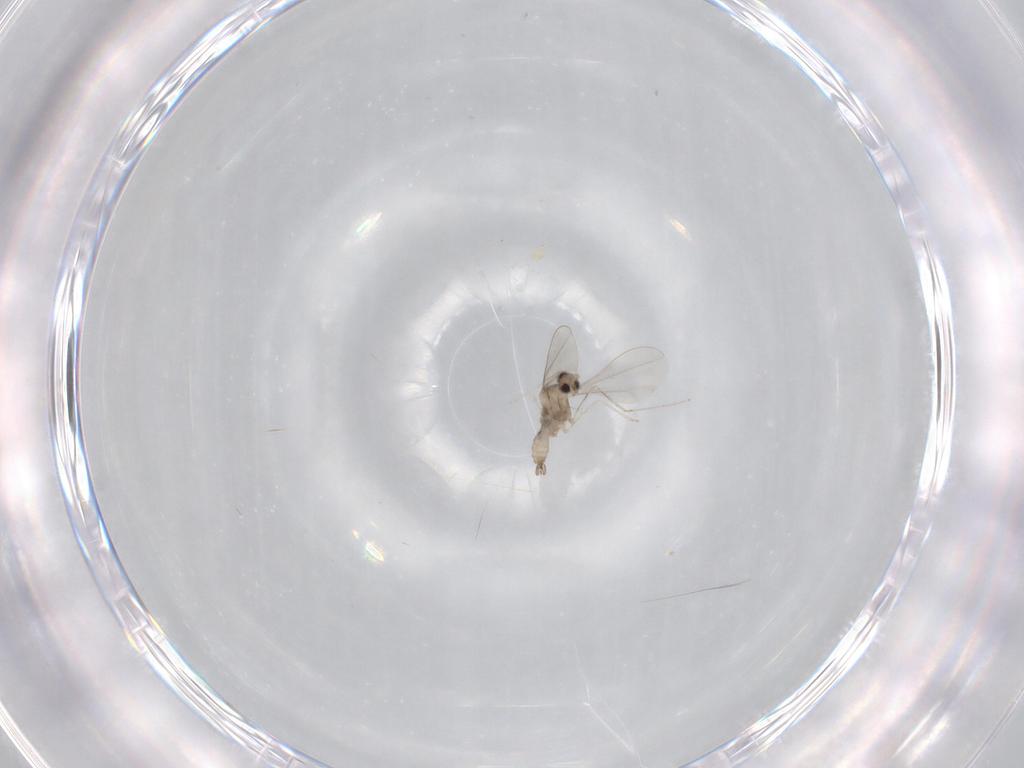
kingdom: Animalia
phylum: Arthropoda
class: Insecta
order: Diptera
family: Cecidomyiidae
